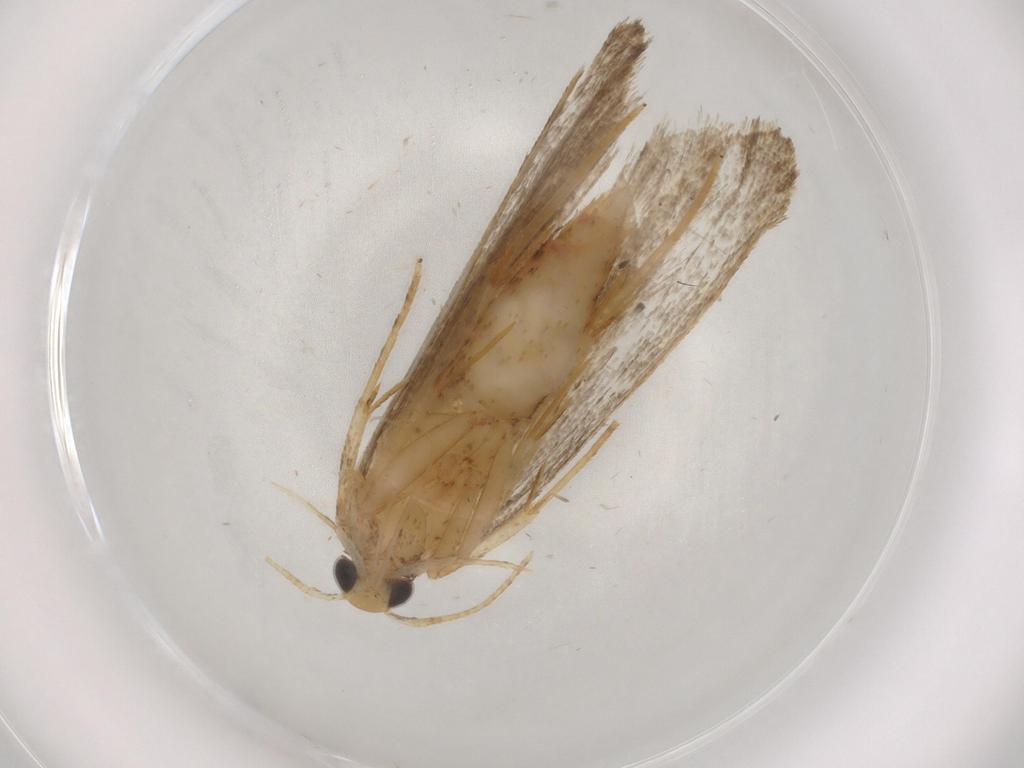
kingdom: Animalia
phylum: Arthropoda
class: Insecta
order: Lepidoptera
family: Autostichidae
